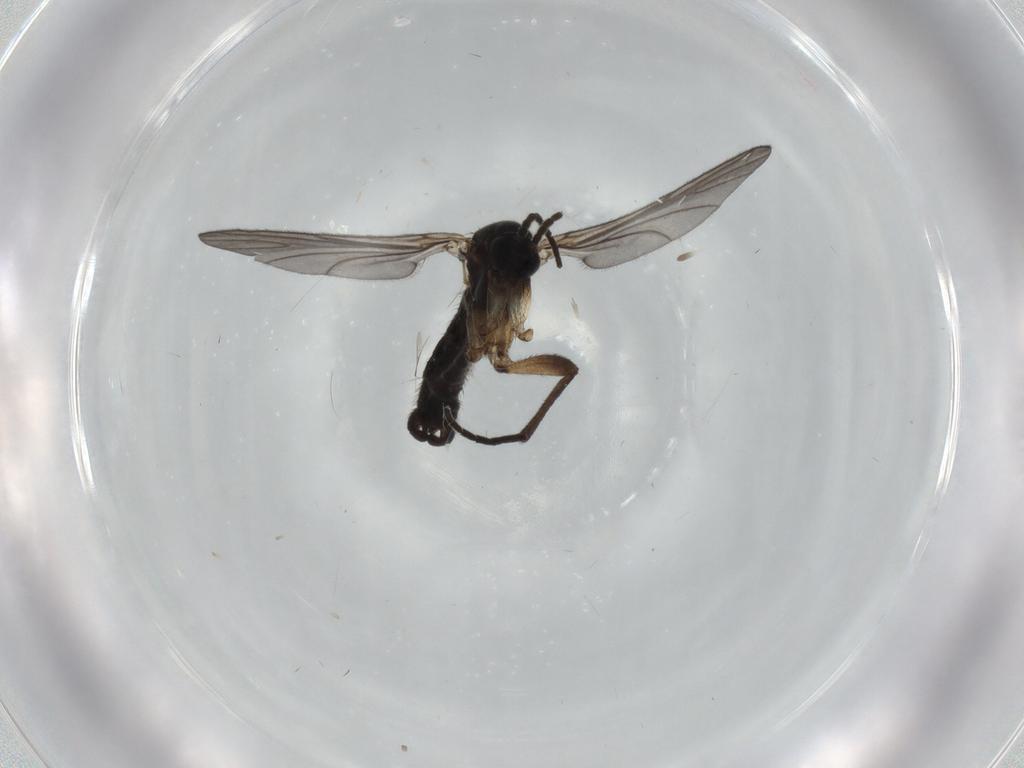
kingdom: Animalia
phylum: Arthropoda
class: Insecta
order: Diptera
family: Sciaridae
